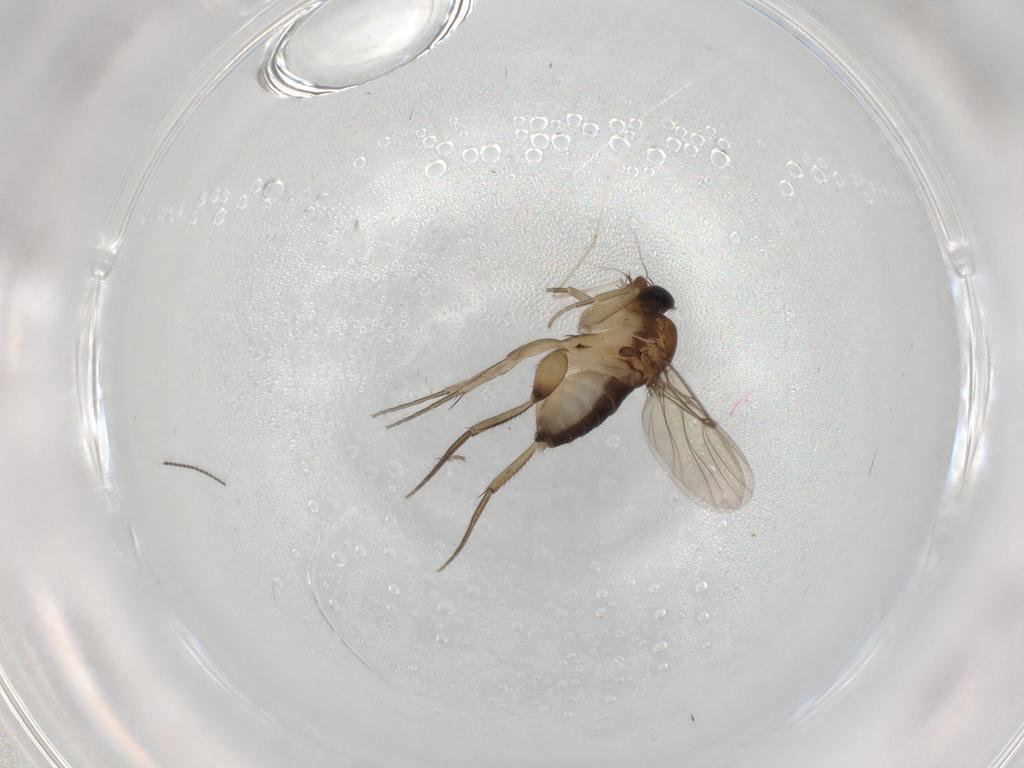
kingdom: Animalia
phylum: Arthropoda
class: Insecta
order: Diptera
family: Phoridae
